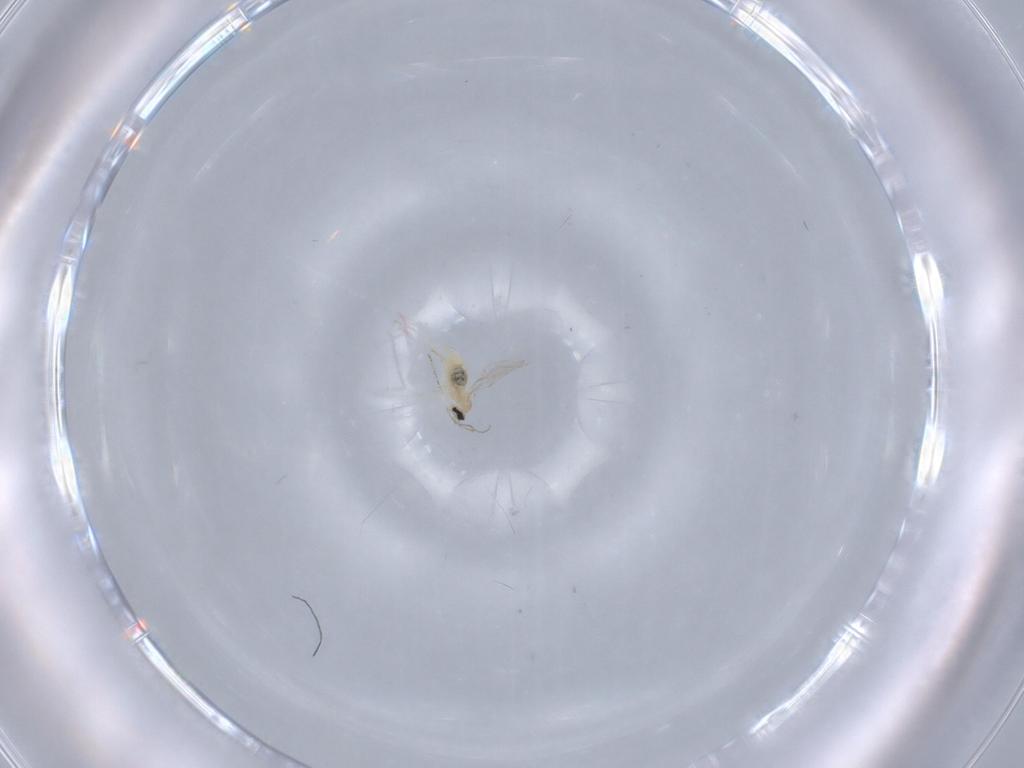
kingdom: Animalia
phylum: Arthropoda
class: Insecta
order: Diptera
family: Cecidomyiidae
